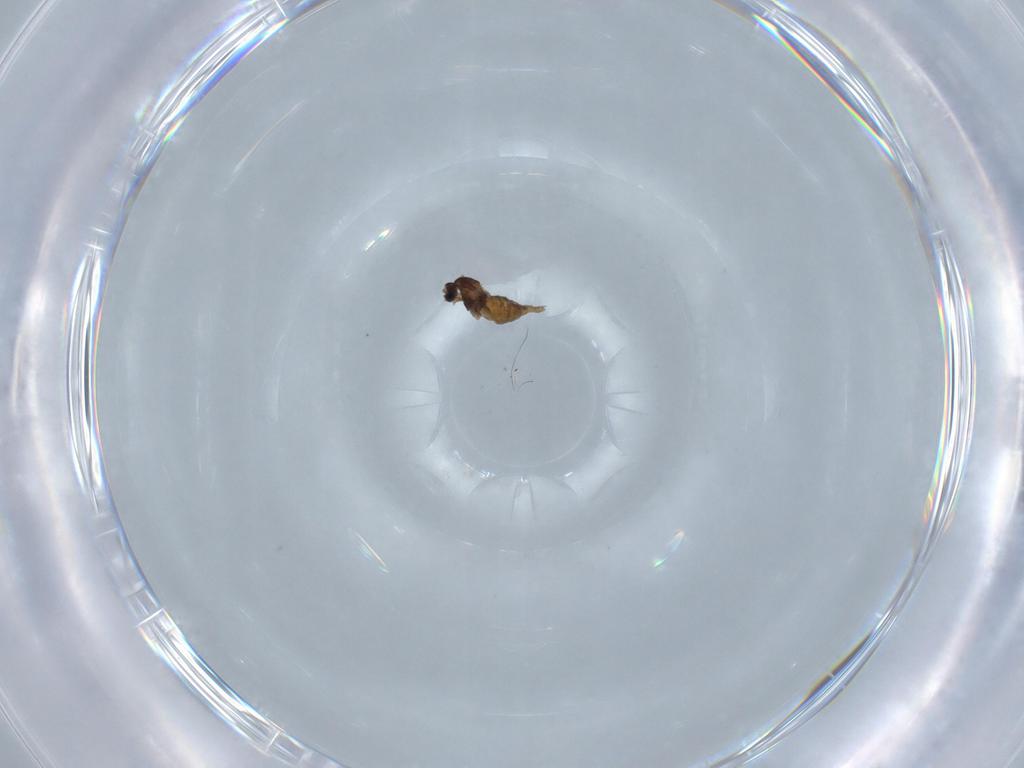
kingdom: Animalia
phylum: Arthropoda
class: Insecta
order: Diptera
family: Cecidomyiidae
